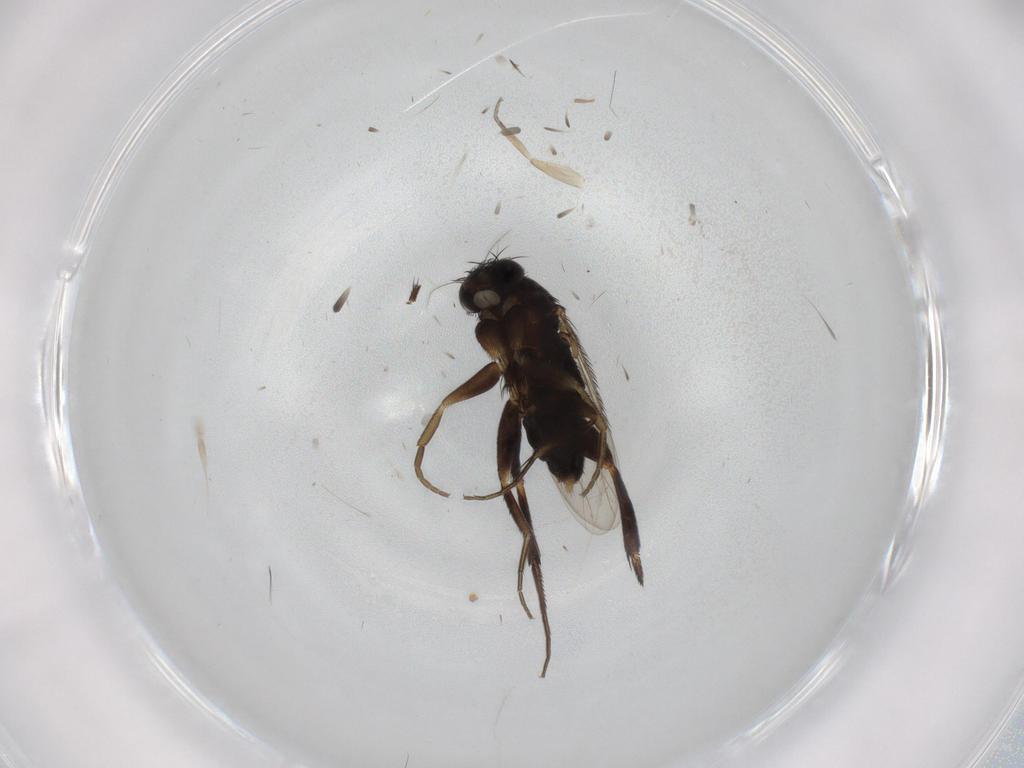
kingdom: Animalia
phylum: Arthropoda
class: Insecta
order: Diptera
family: Phoridae
